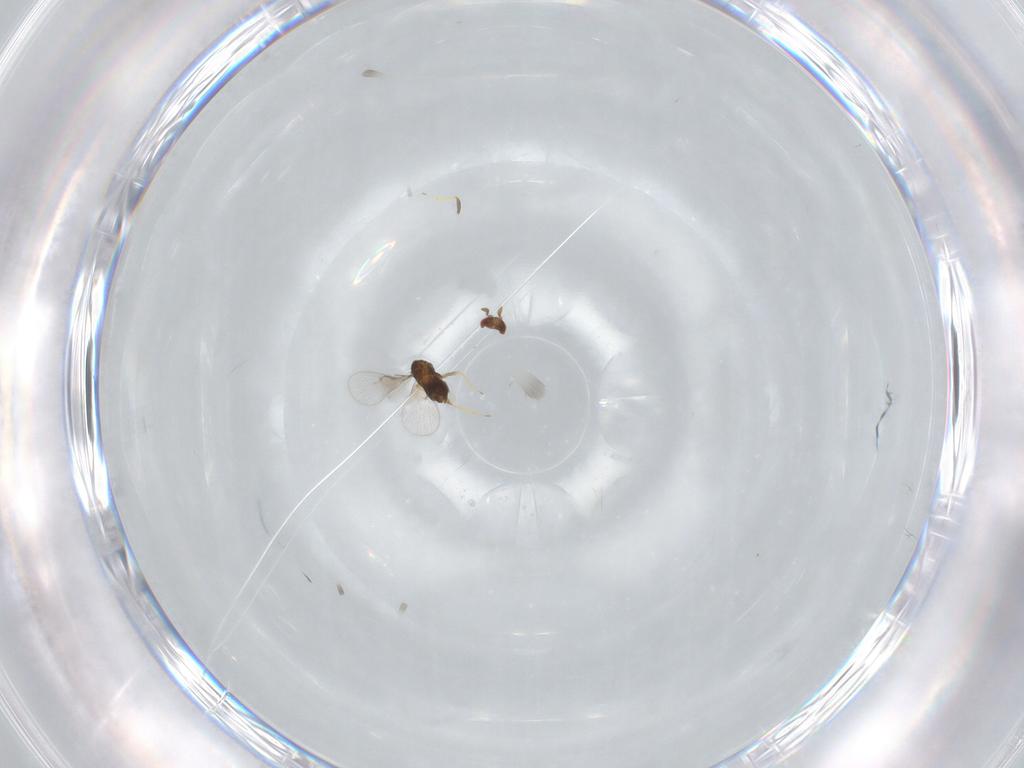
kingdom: Animalia
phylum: Arthropoda
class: Insecta
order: Hymenoptera
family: Trichogrammatidae
